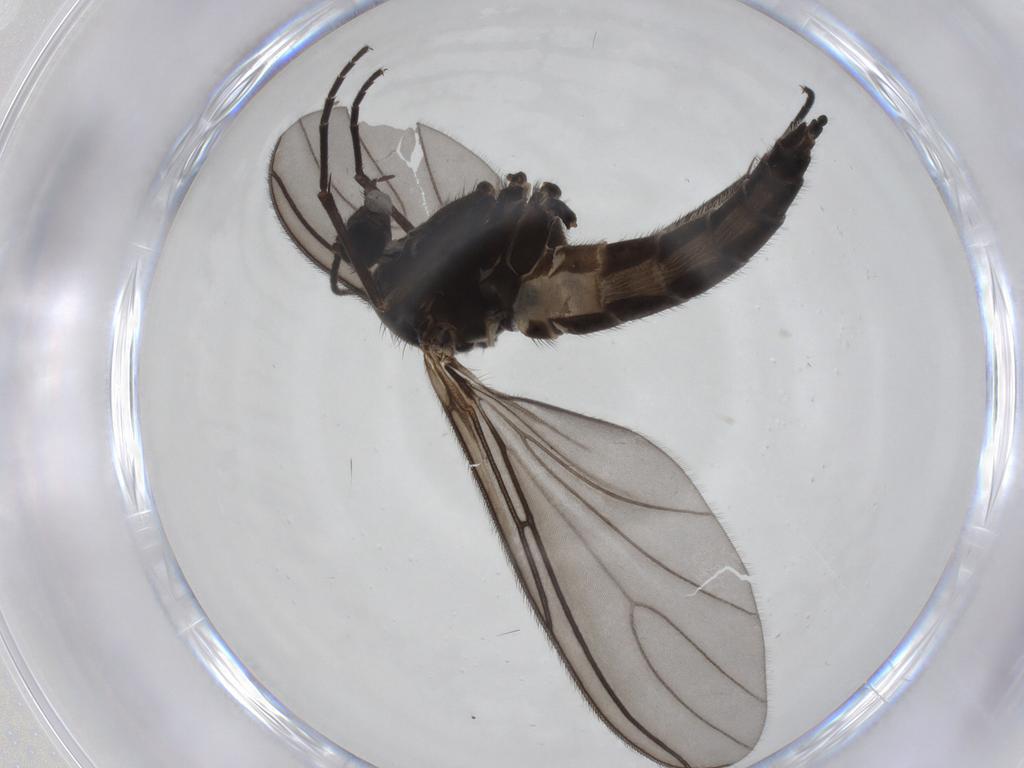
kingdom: Animalia
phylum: Arthropoda
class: Insecta
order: Diptera
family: Sciaridae
